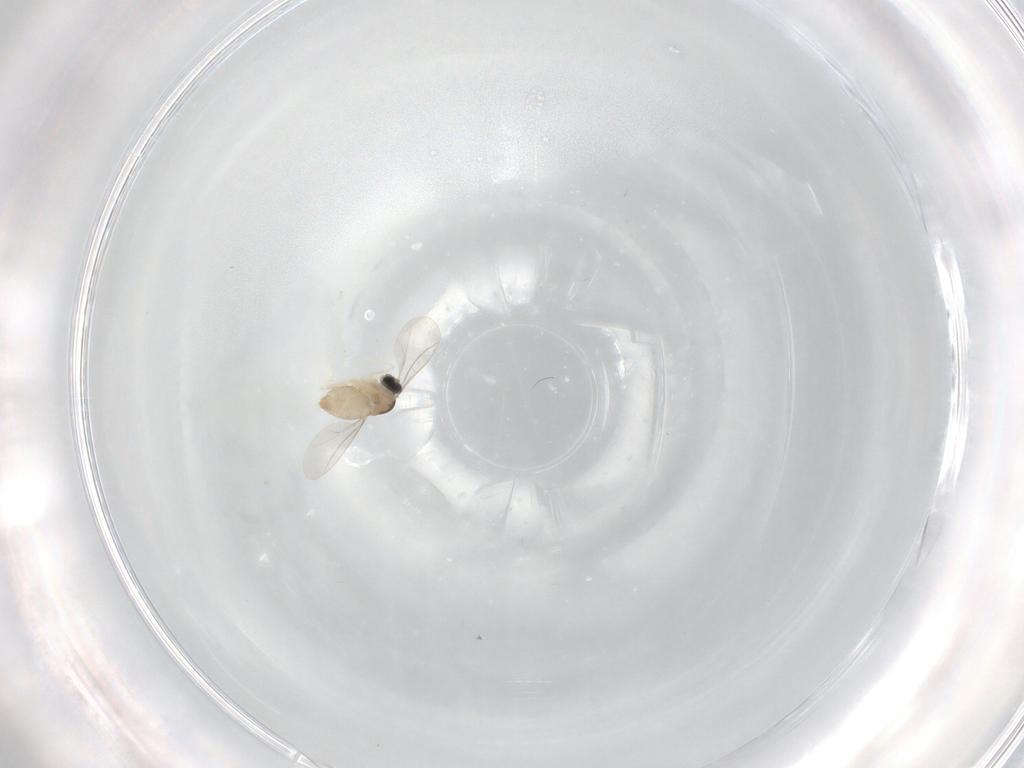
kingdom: Animalia
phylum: Arthropoda
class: Insecta
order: Diptera
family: Cecidomyiidae
